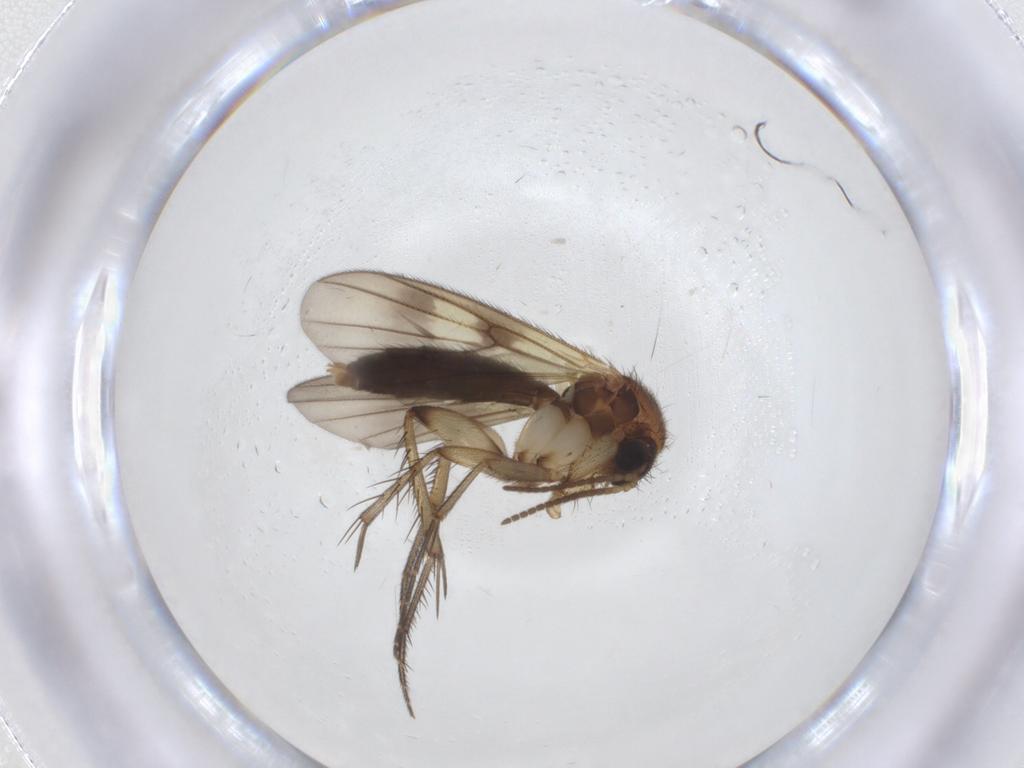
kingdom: Animalia
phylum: Arthropoda
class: Insecta
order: Diptera
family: Mycetophilidae
